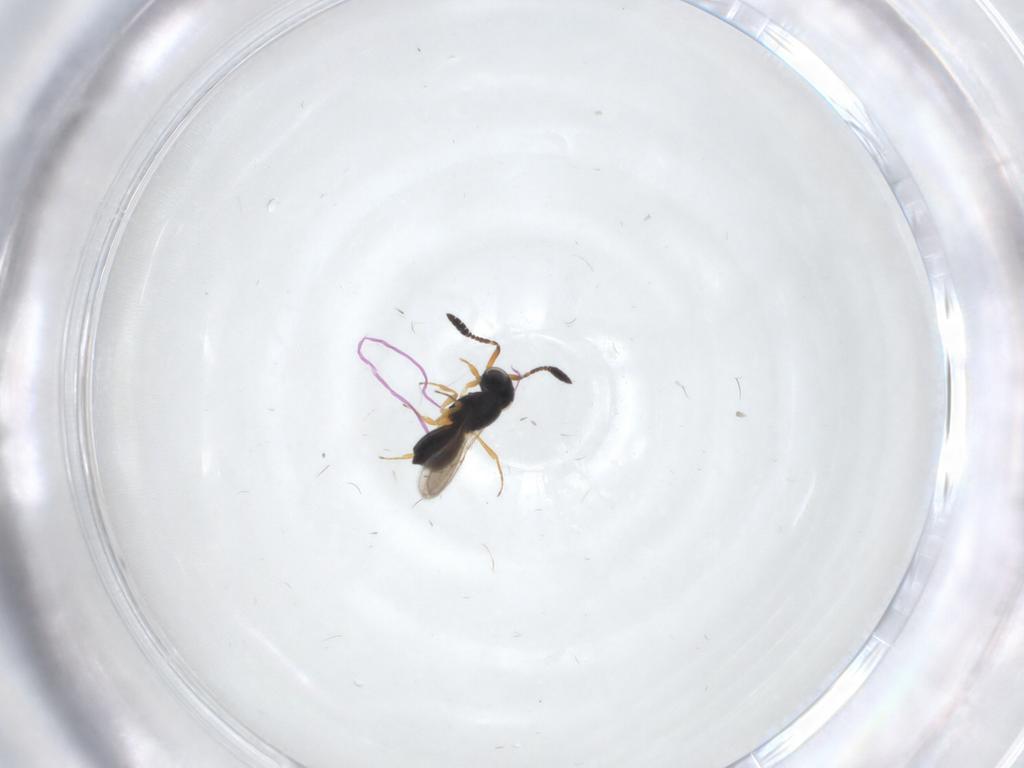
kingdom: Animalia
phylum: Arthropoda
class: Insecta
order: Hymenoptera
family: Scelionidae
